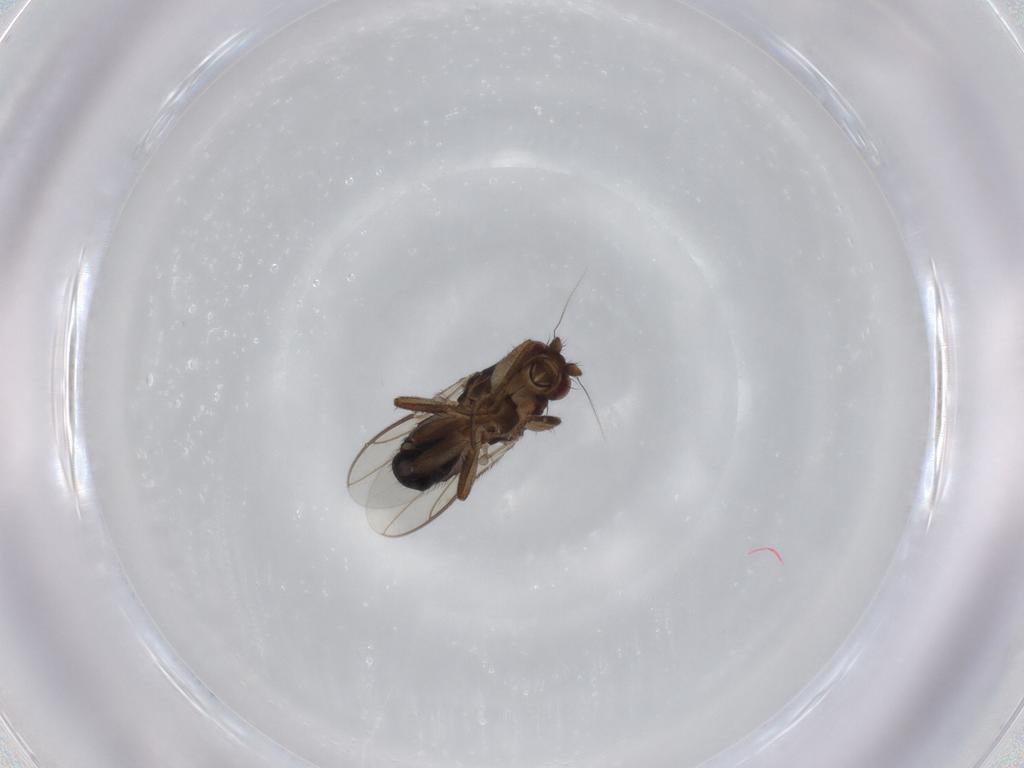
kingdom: Animalia
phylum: Arthropoda
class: Insecta
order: Diptera
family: Sphaeroceridae
